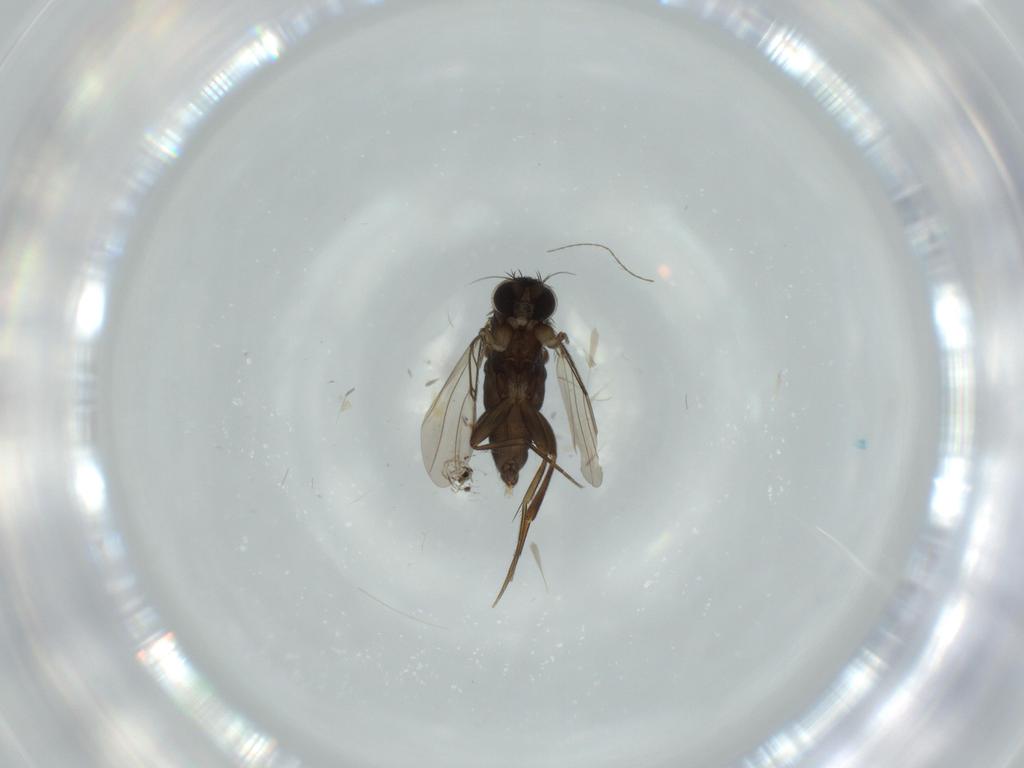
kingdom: Animalia
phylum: Arthropoda
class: Insecta
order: Diptera
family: Phoridae
